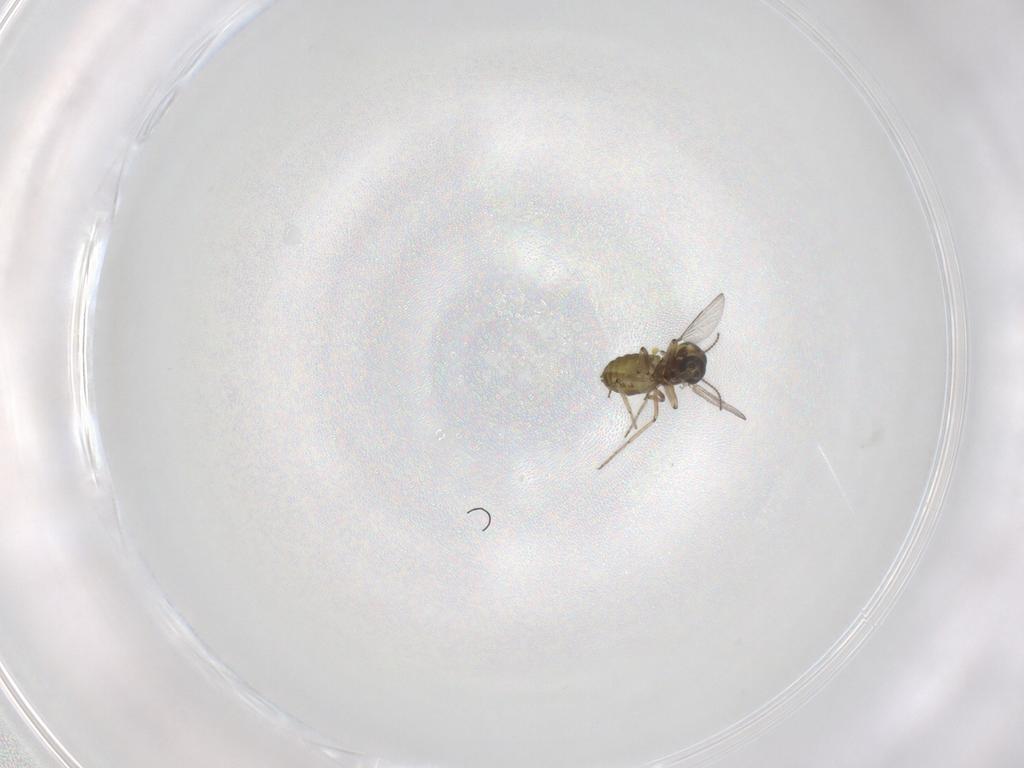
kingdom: Animalia
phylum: Arthropoda
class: Insecta
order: Diptera
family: Ceratopogonidae
